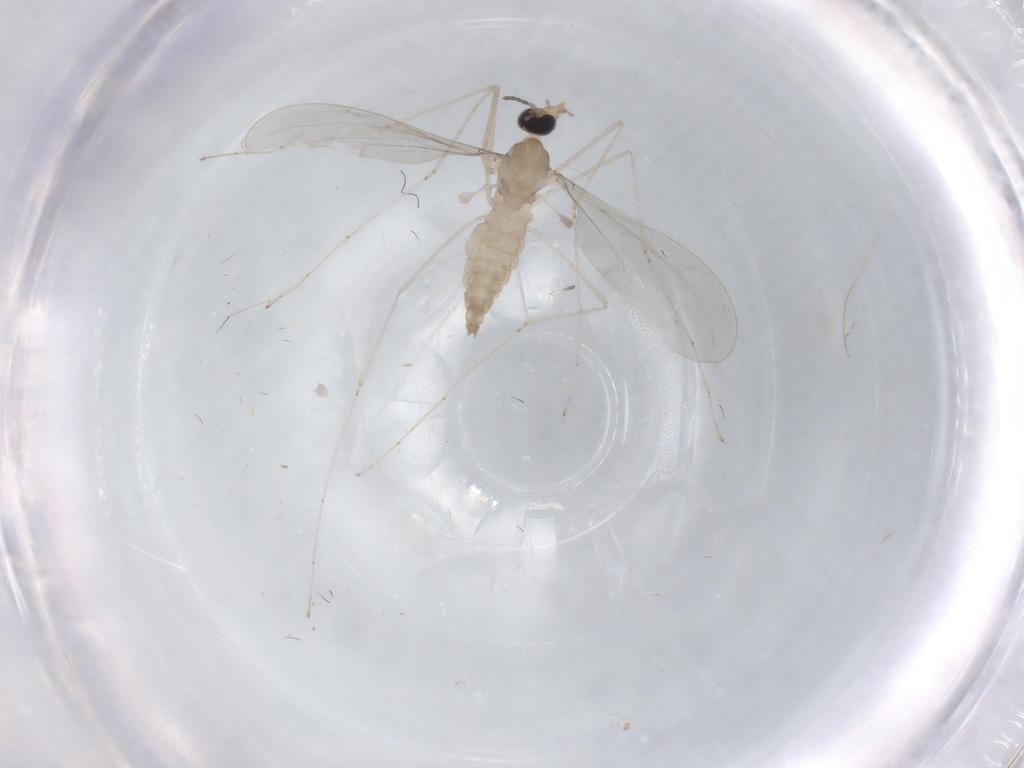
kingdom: Animalia
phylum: Arthropoda
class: Insecta
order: Diptera
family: Cecidomyiidae
